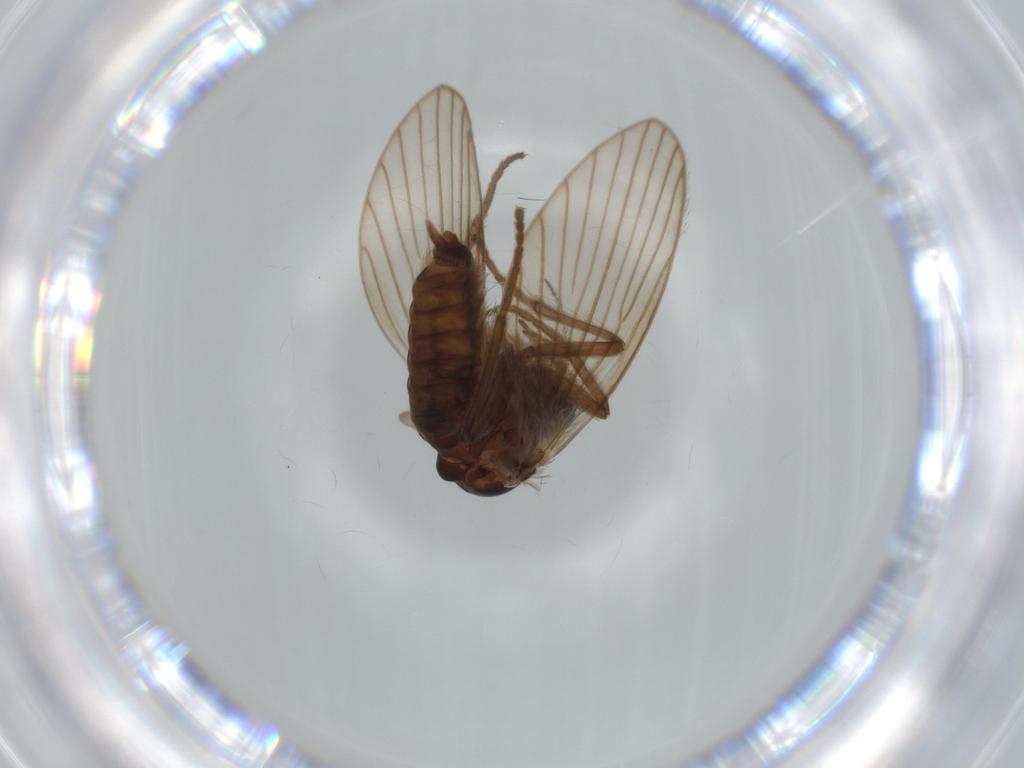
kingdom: Animalia
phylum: Arthropoda
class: Insecta
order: Diptera
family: Psychodidae
